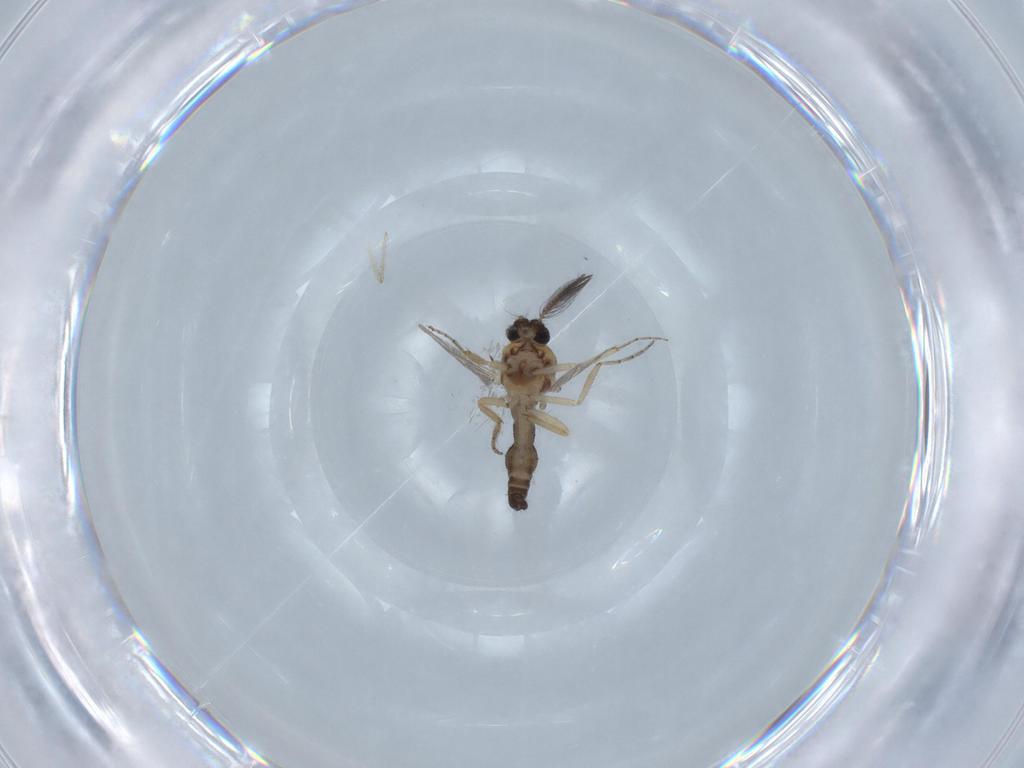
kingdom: Animalia
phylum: Arthropoda
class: Insecta
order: Diptera
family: Ceratopogonidae
